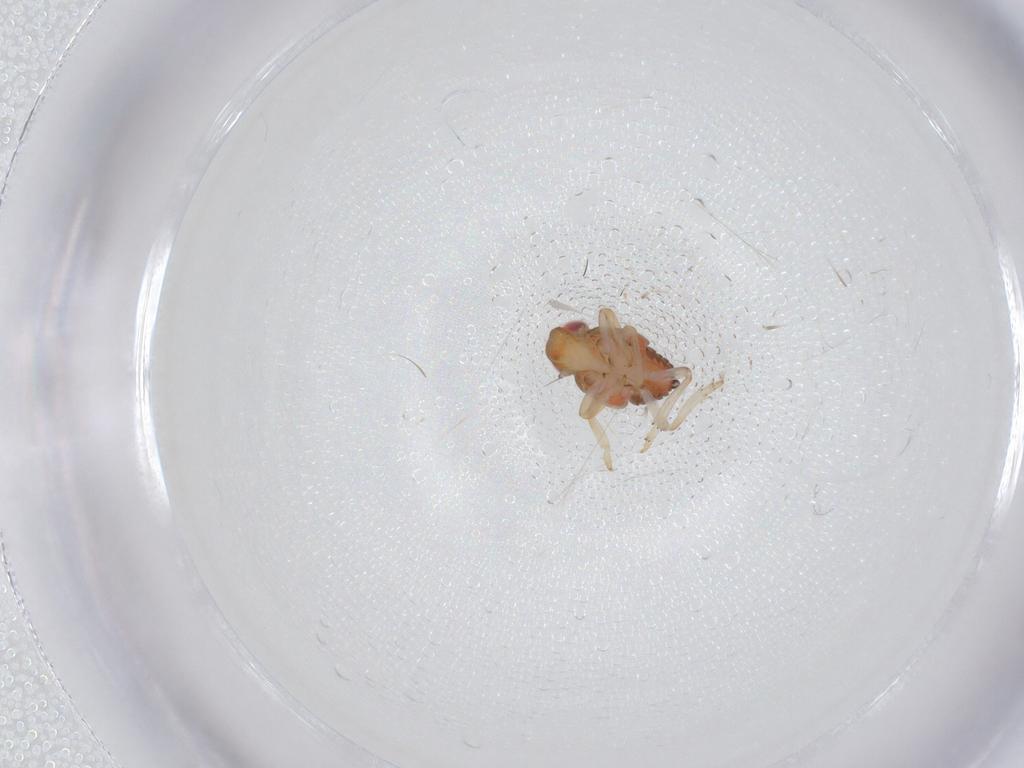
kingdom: Animalia
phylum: Arthropoda
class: Insecta
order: Hemiptera
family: Issidae
